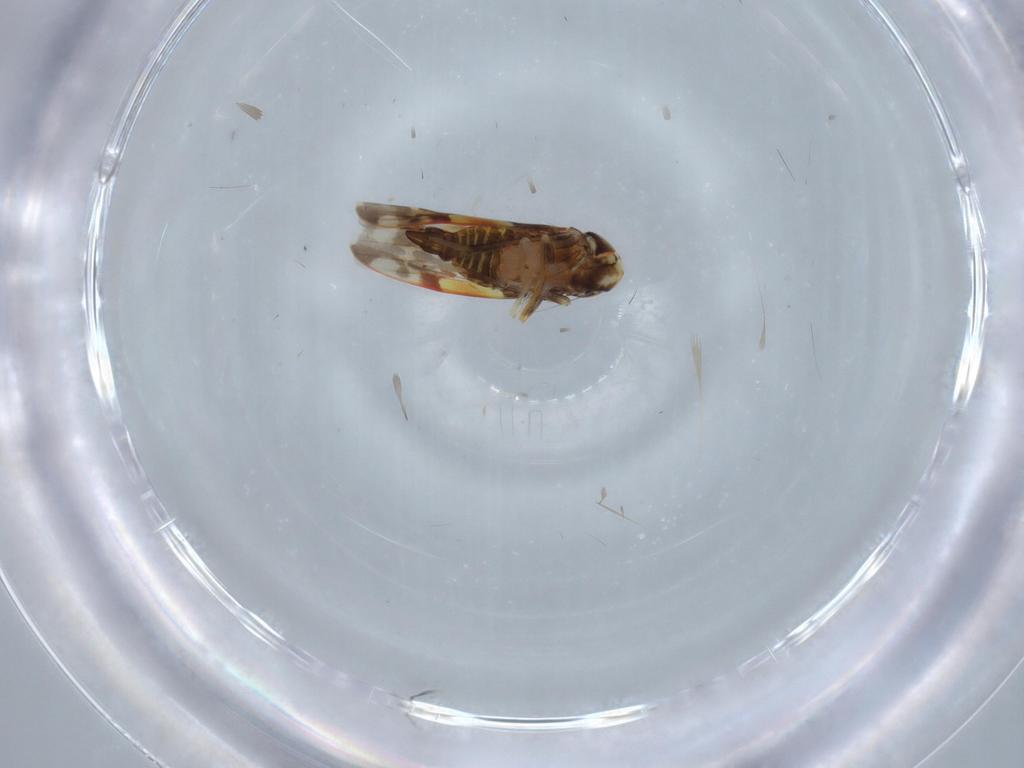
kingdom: Animalia
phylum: Arthropoda
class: Insecta
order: Hemiptera
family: Cicadellidae
